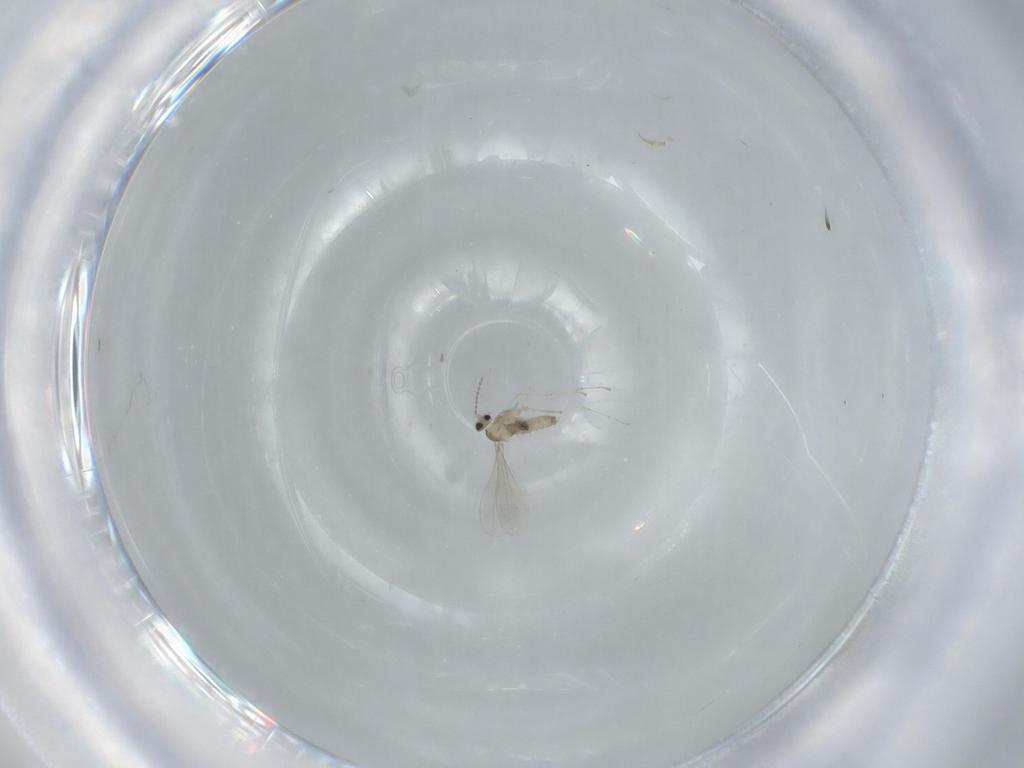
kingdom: Animalia
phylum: Arthropoda
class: Insecta
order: Diptera
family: Cecidomyiidae
